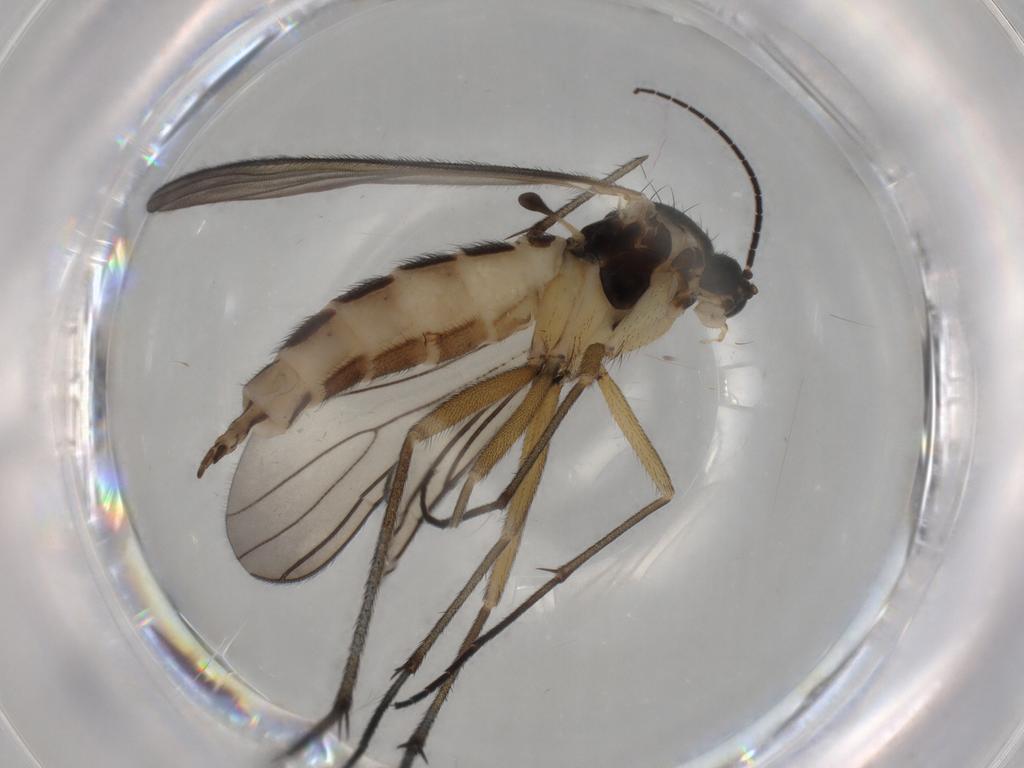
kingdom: Animalia
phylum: Arthropoda
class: Insecta
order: Diptera
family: Sciaridae
